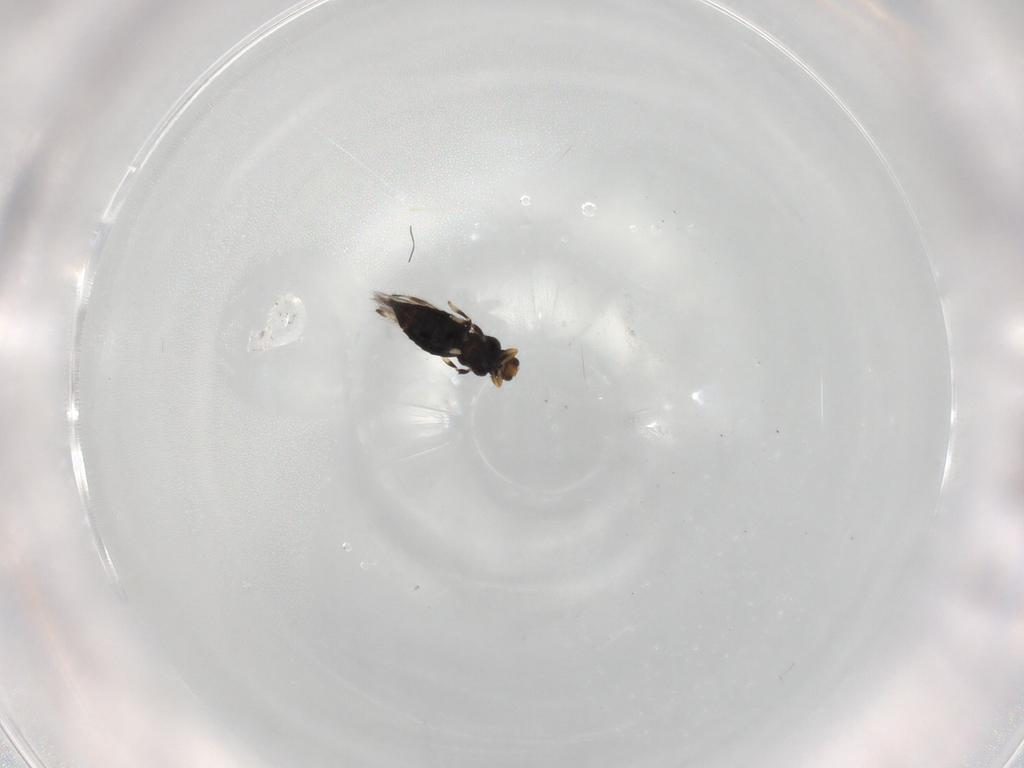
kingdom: Animalia
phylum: Arthropoda
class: Insecta
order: Thysanoptera
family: Thripidae
